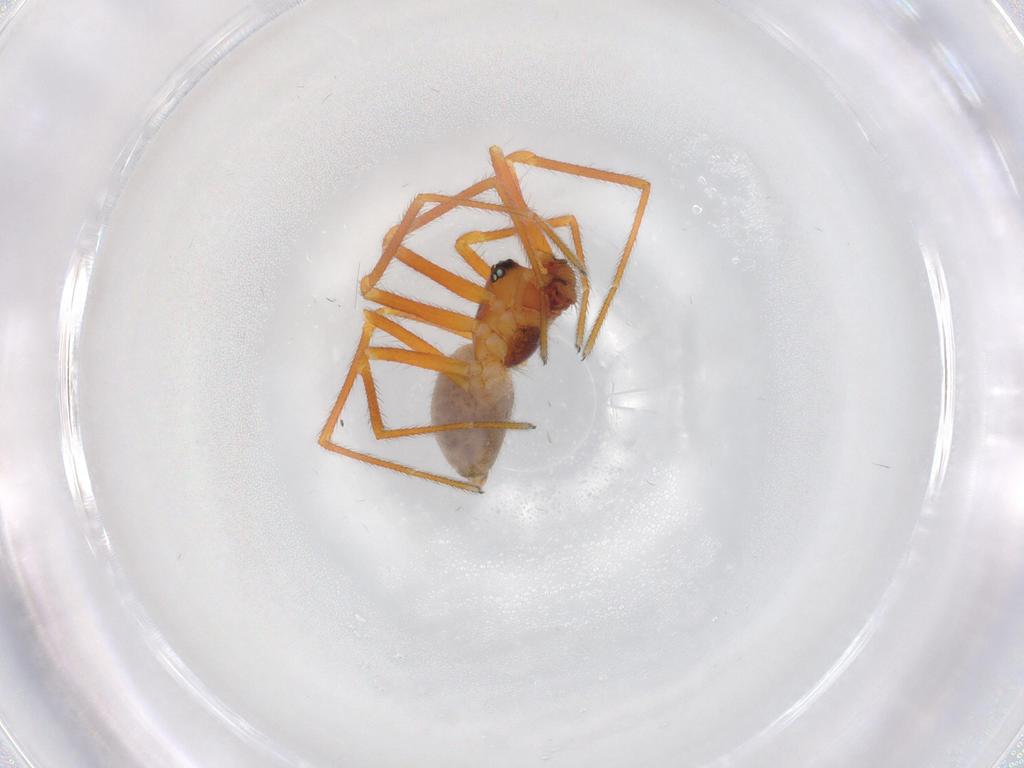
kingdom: Animalia
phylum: Arthropoda
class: Arachnida
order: Araneae
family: Linyphiidae
